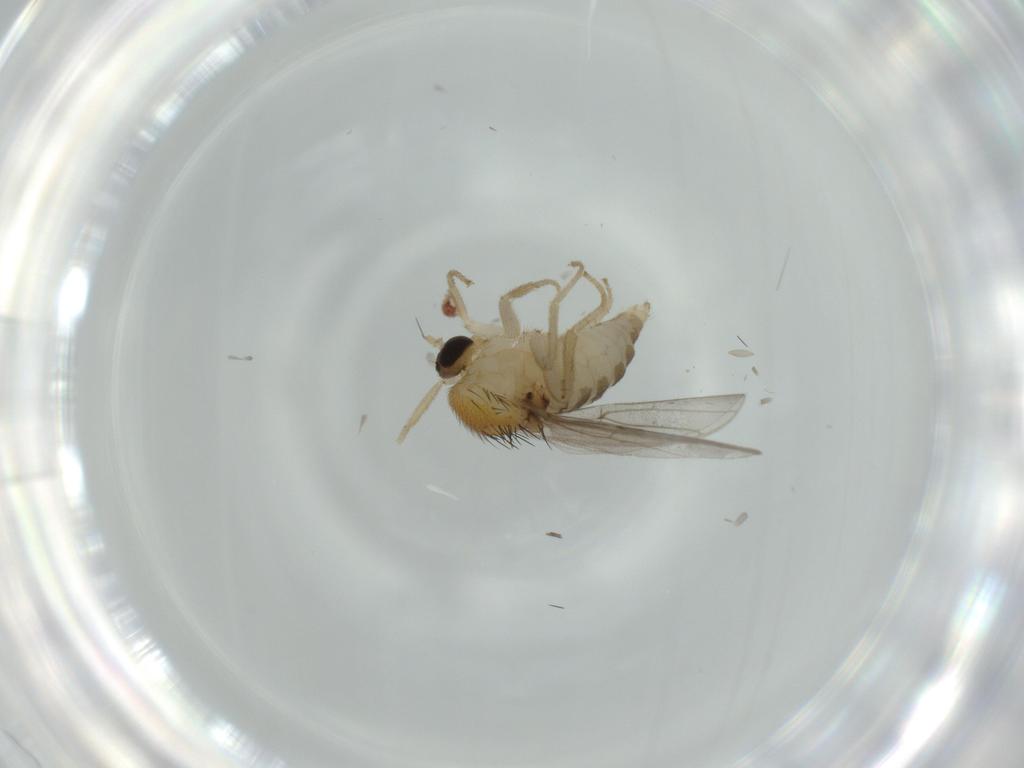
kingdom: Animalia
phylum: Arthropoda
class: Insecta
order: Diptera
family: Hybotidae
